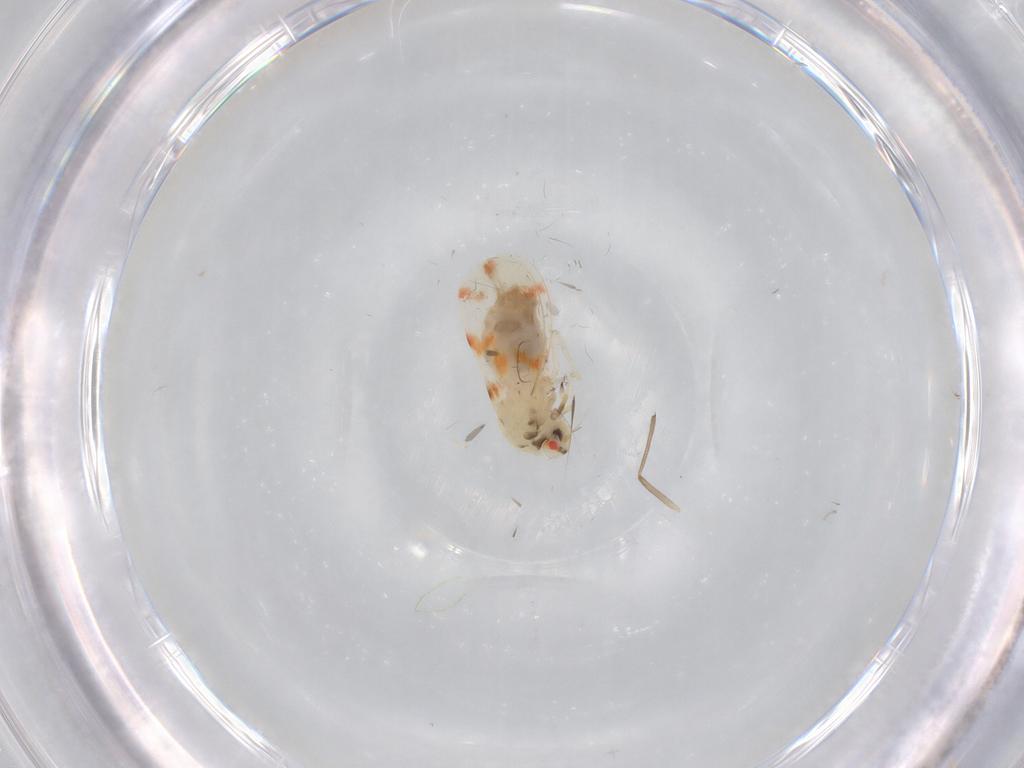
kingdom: Animalia
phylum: Arthropoda
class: Insecta
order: Hemiptera
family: Aleyrodidae
